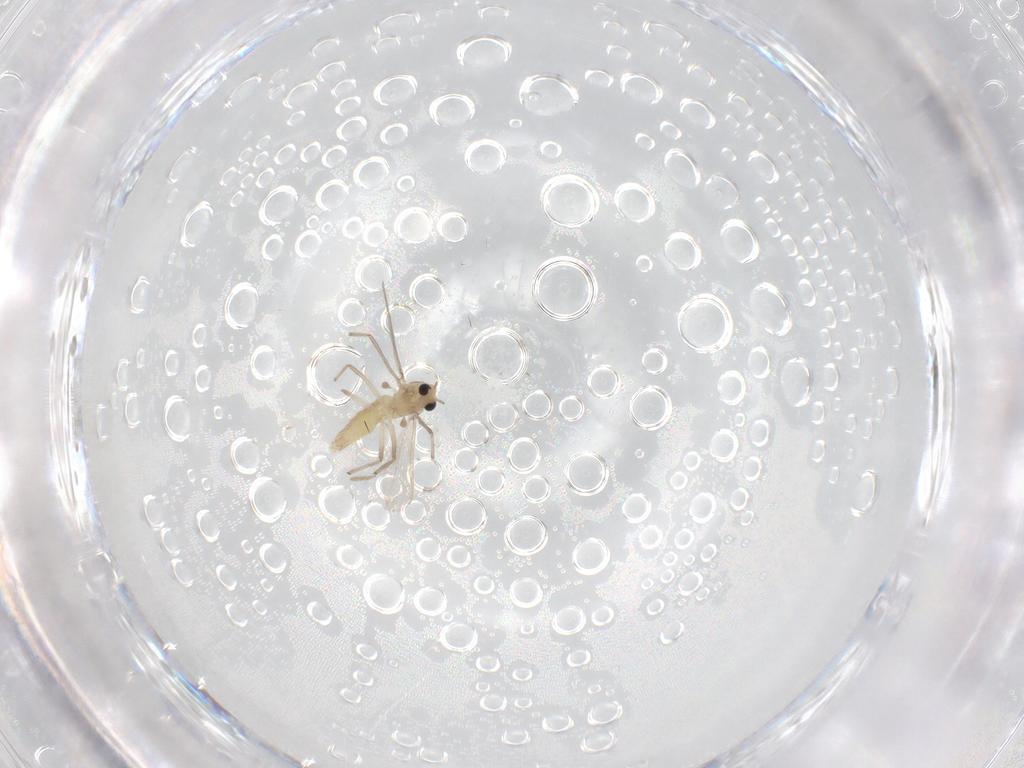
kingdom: Animalia
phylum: Arthropoda
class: Insecta
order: Diptera
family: Chironomidae
